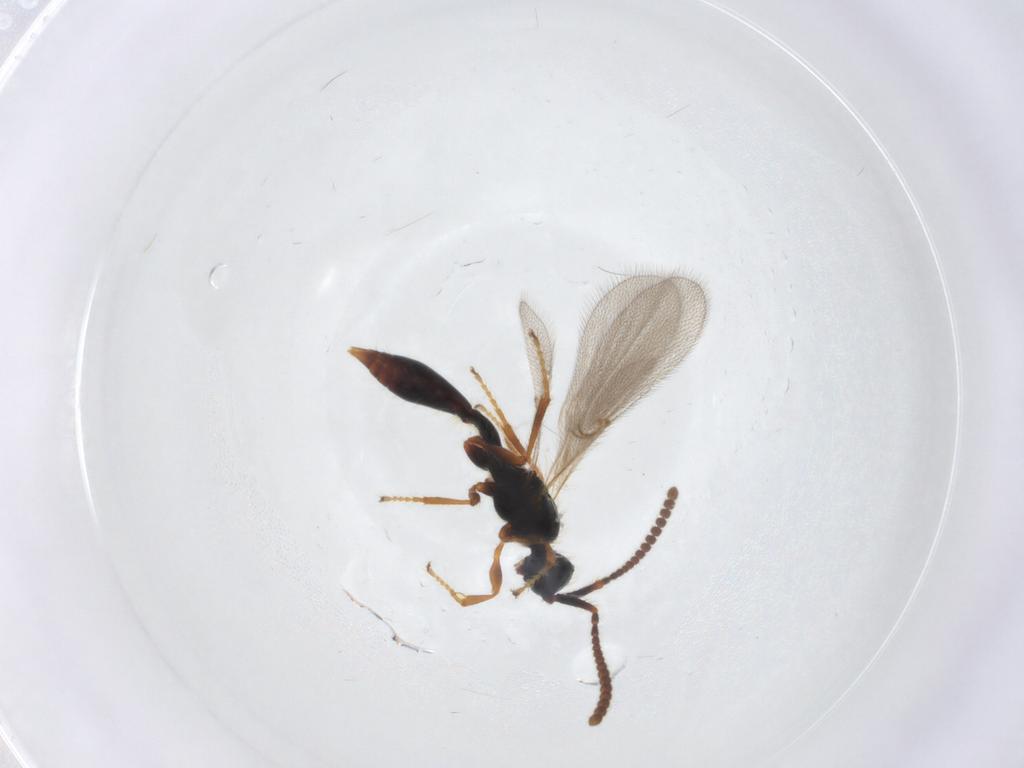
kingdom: Animalia
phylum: Arthropoda
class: Insecta
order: Hymenoptera
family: Diapriidae
